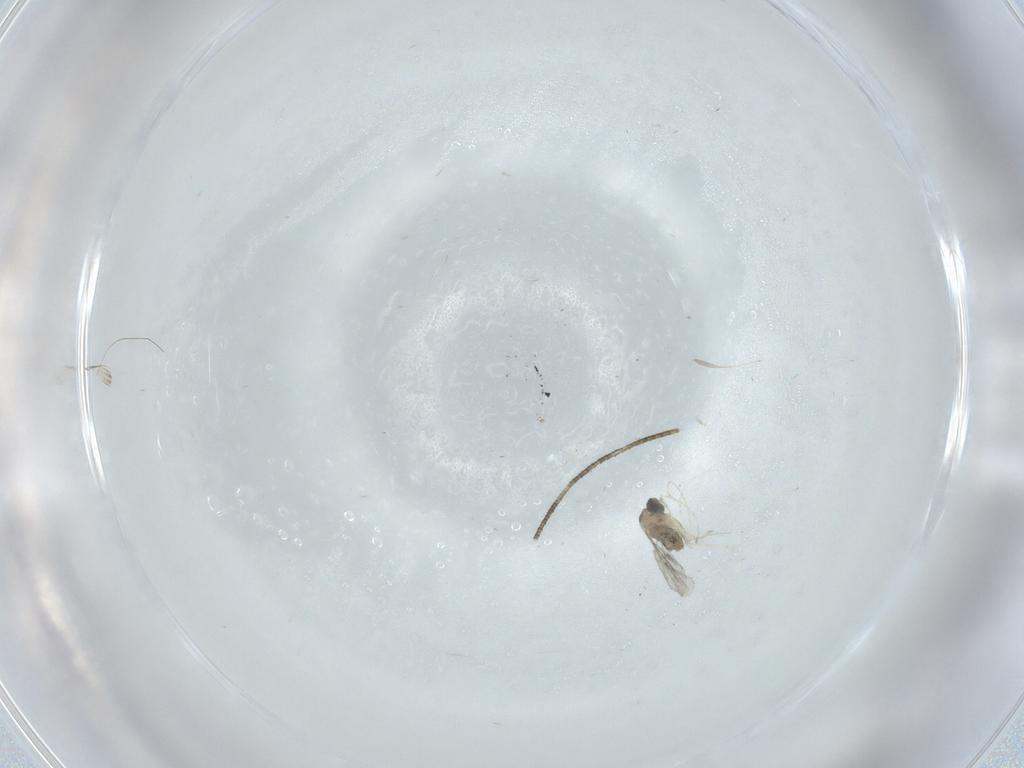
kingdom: Animalia
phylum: Arthropoda
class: Insecta
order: Diptera
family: Cecidomyiidae
